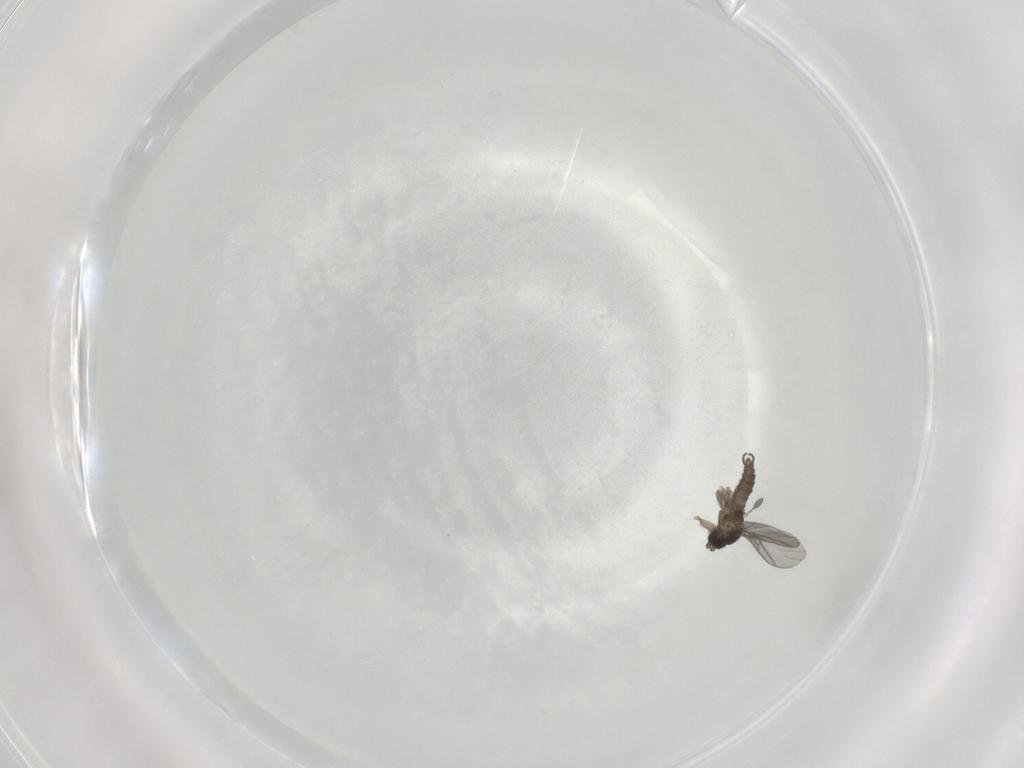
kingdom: Animalia
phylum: Arthropoda
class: Insecta
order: Diptera
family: Sciaridae
